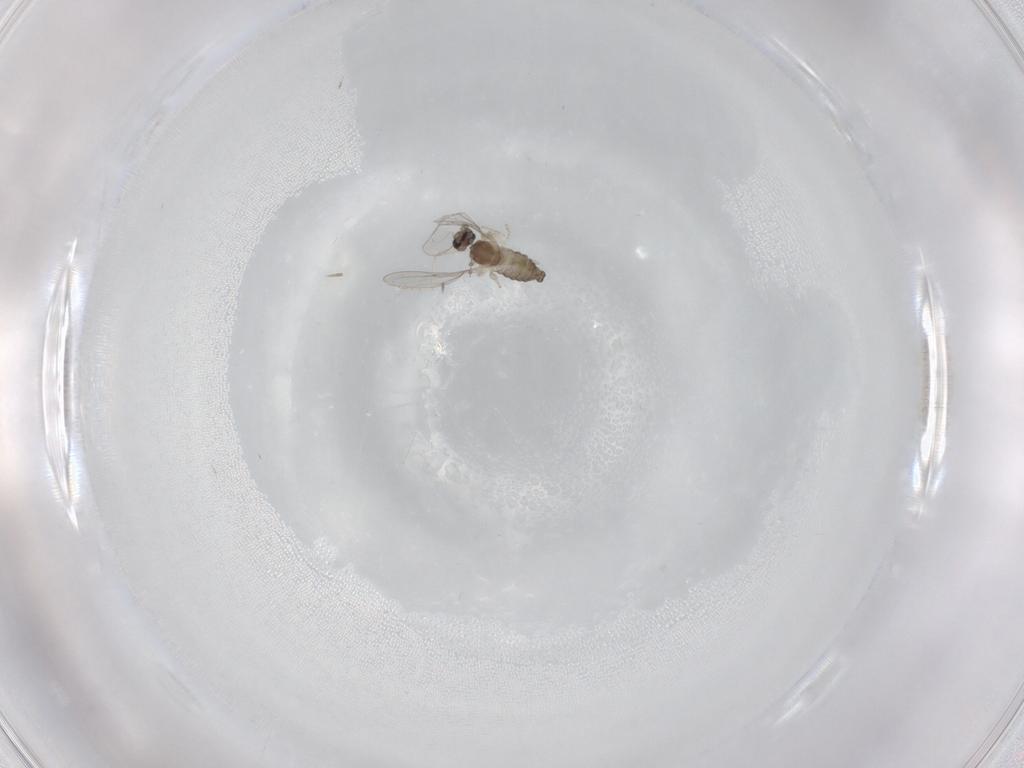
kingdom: Animalia
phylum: Arthropoda
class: Insecta
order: Diptera
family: Cecidomyiidae
